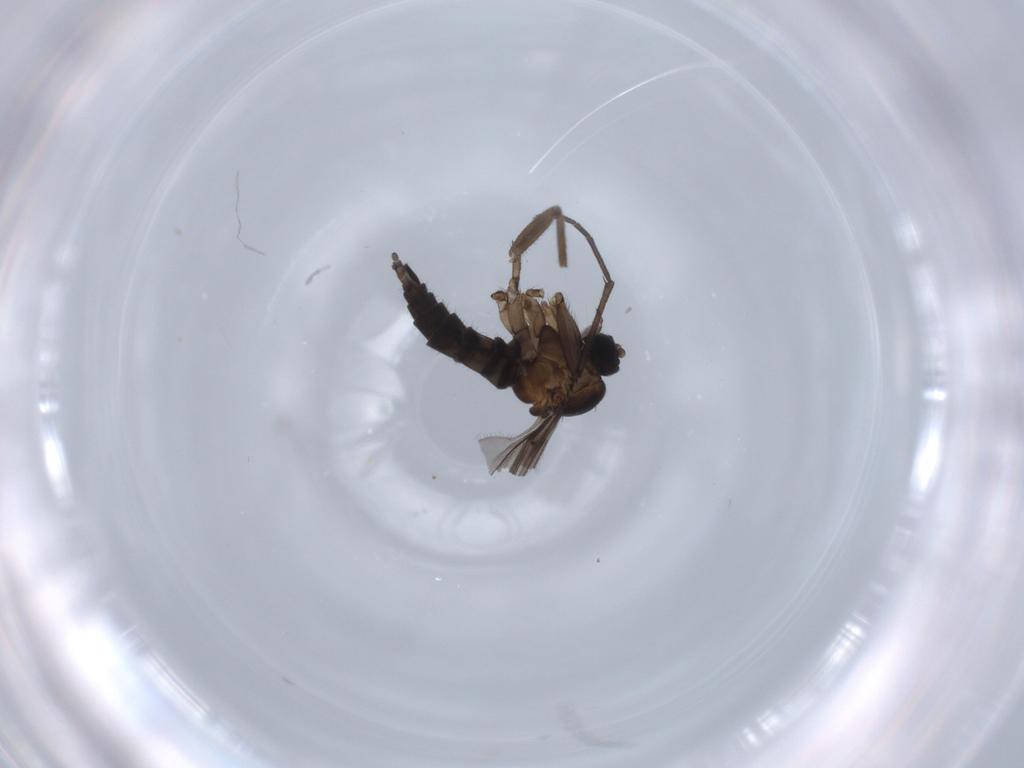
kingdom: Animalia
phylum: Arthropoda
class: Insecta
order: Diptera
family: Sciaridae
